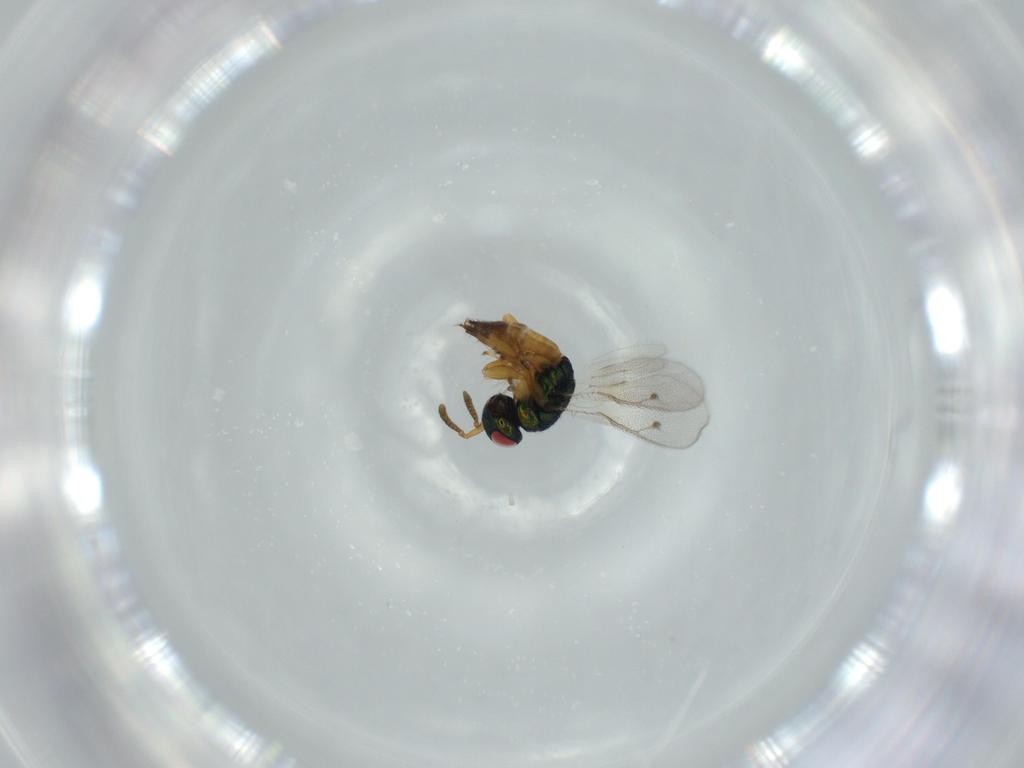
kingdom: Animalia
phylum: Arthropoda
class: Insecta
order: Hymenoptera
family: Pteromalidae
